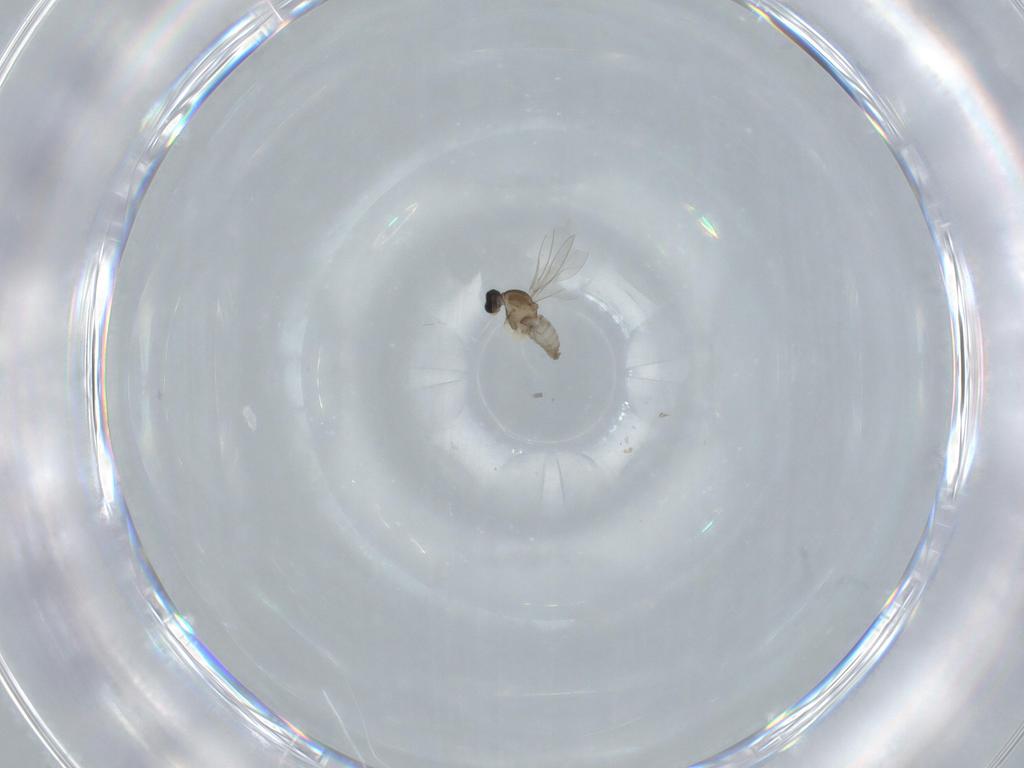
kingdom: Animalia
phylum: Arthropoda
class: Insecta
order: Diptera
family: Cecidomyiidae
